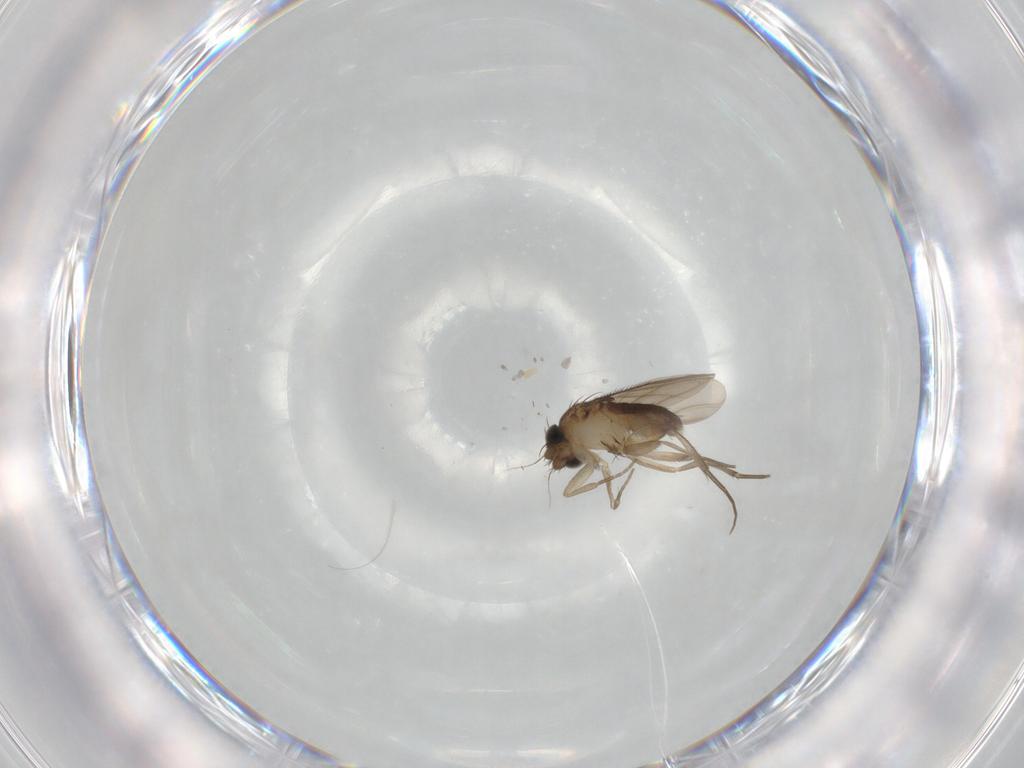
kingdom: Animalia
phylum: Arthropoda
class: Insecta
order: Diptera
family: Phoridae
